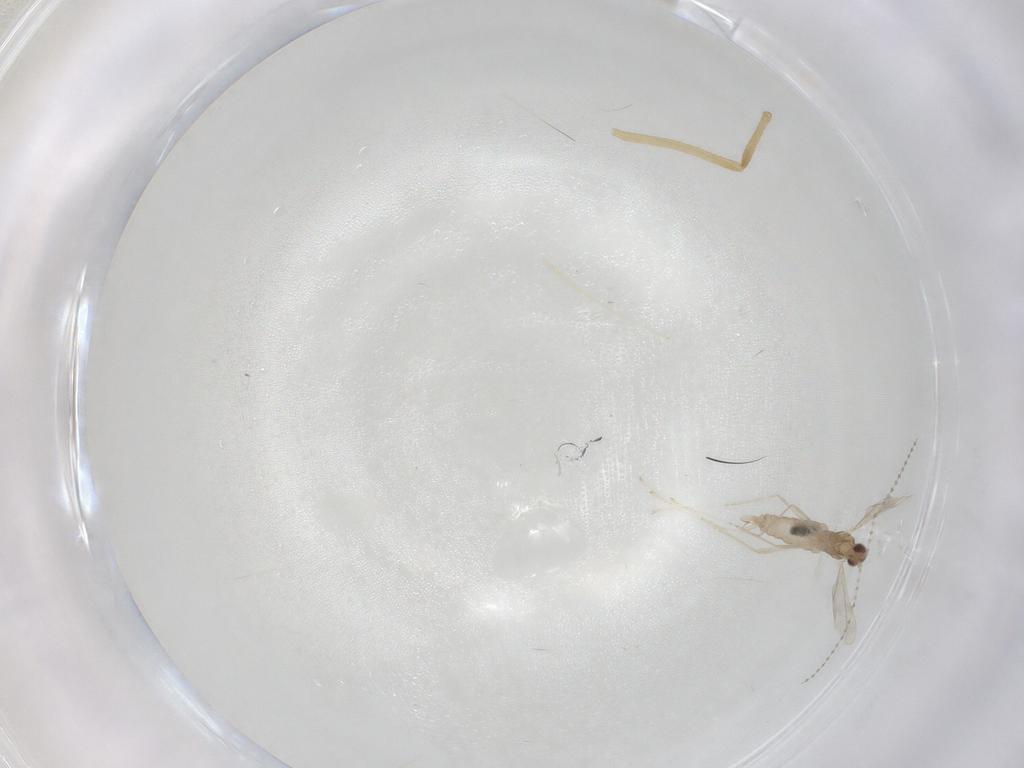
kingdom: Animalia
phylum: Arthropoda
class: Insecta
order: Diptera
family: Chironomidae
